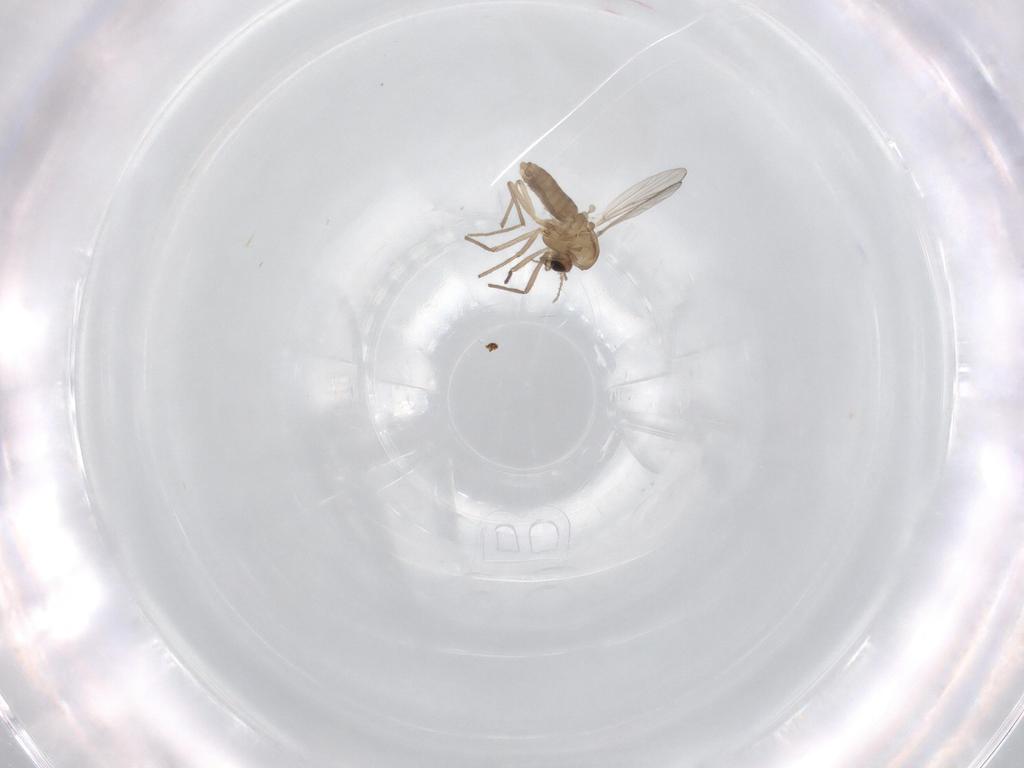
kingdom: Animalia
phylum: Arthropoda
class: Insecta
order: Diptera
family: Chironomidae
